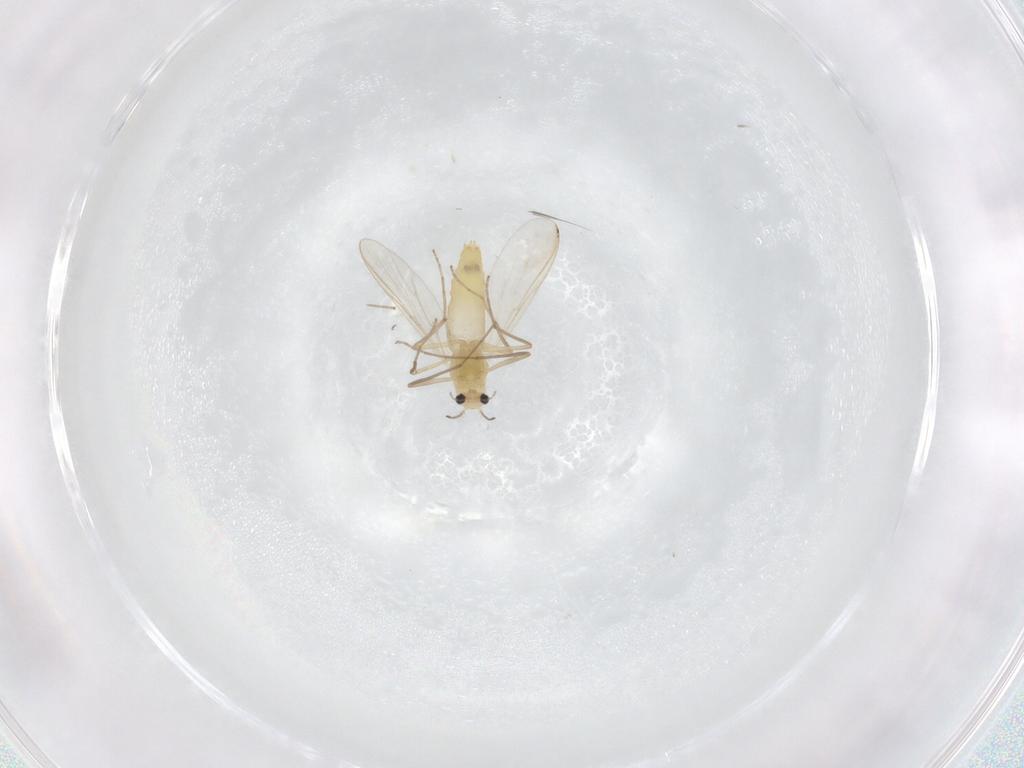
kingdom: Animalia
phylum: Arthropoda
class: Insecta
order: Diptera
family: Chironomidae
